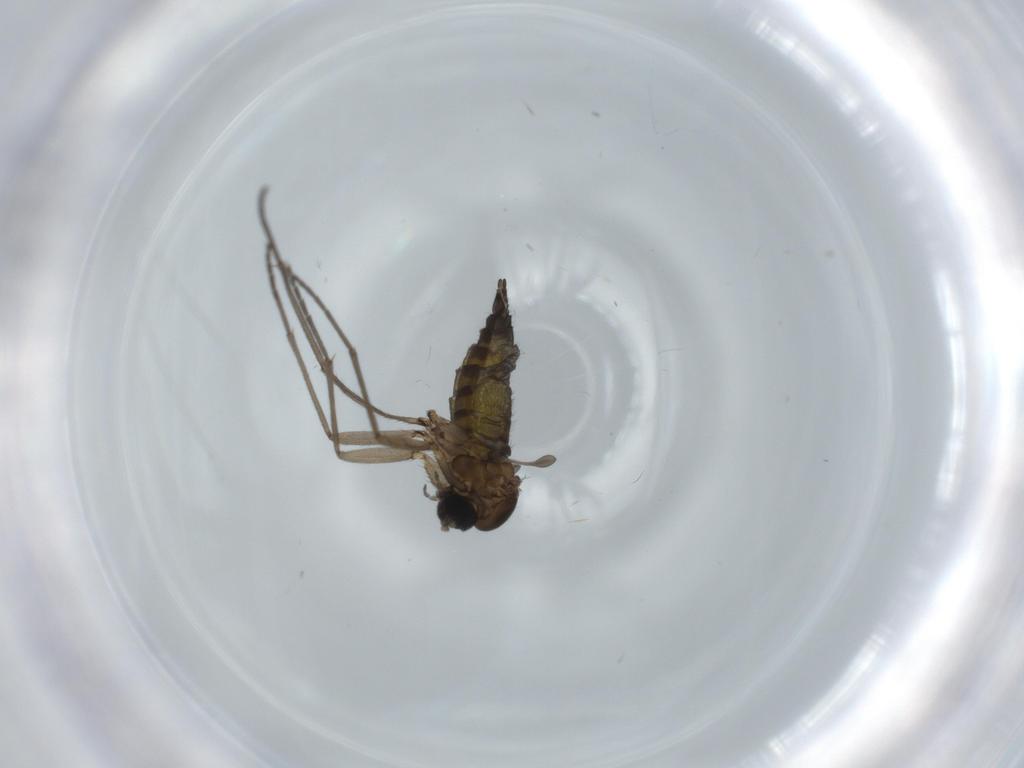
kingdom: Animalia
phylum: Arthropoda
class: Insecta
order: Diptera
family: Sciaridae
